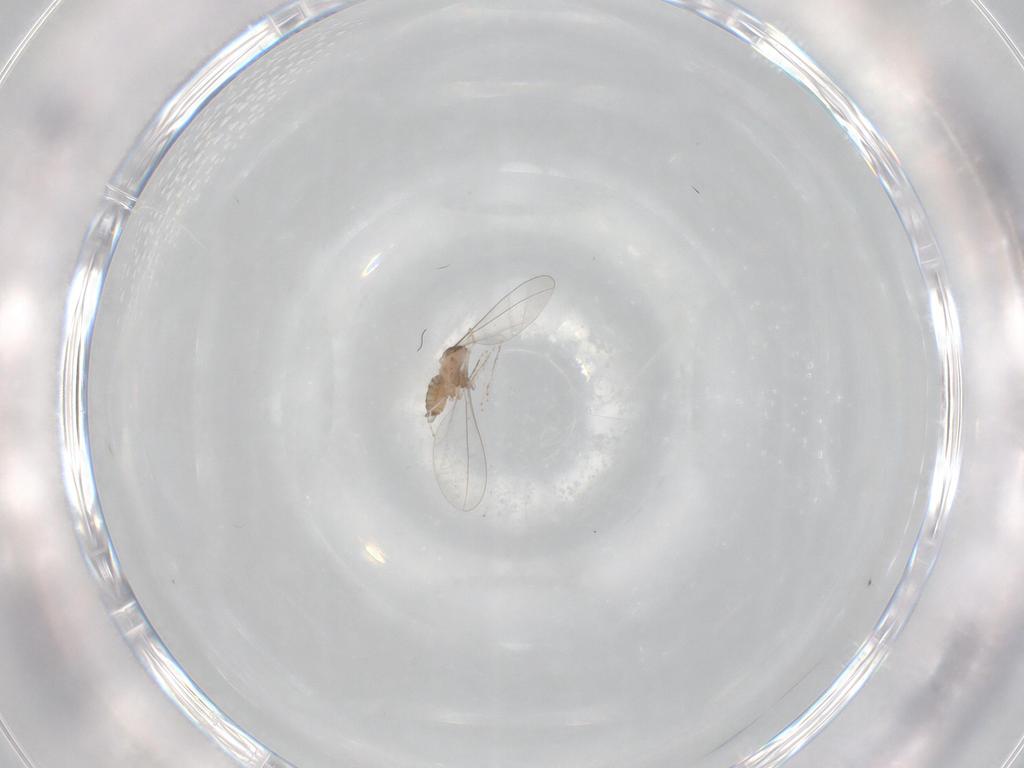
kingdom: Animalia
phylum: Arthropoda
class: Insecta
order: Diptera
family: Cecidomyiidae
